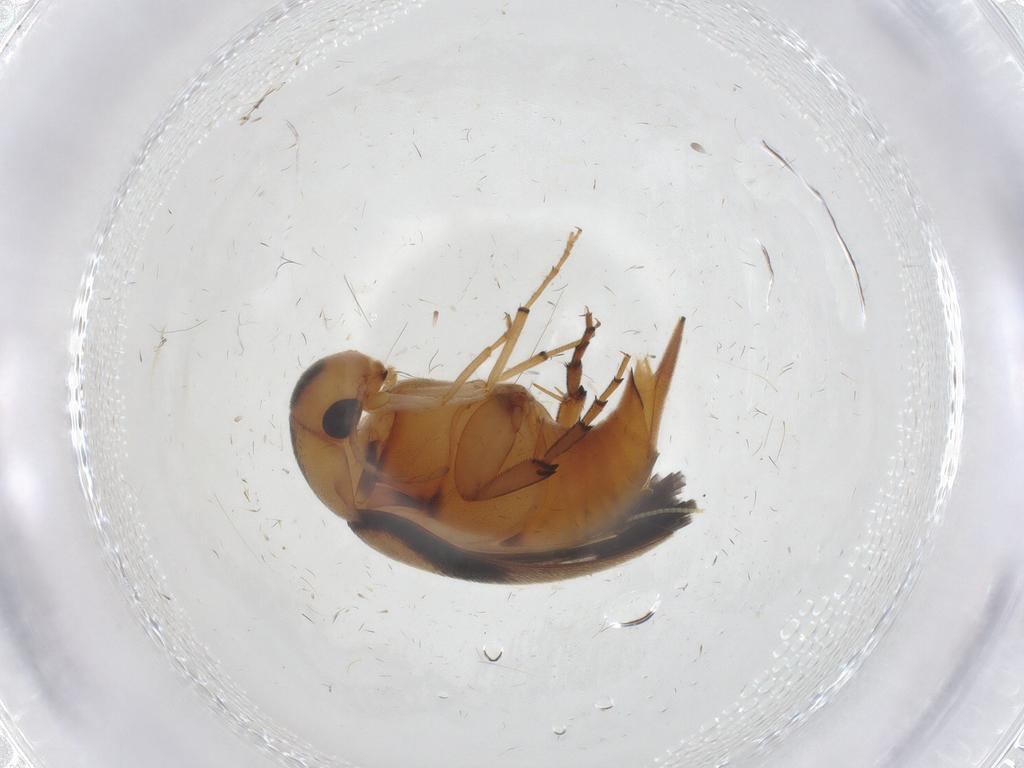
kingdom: Animalia
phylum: Arthropoda
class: Insecta
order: Coleoptera
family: Mordellidae
